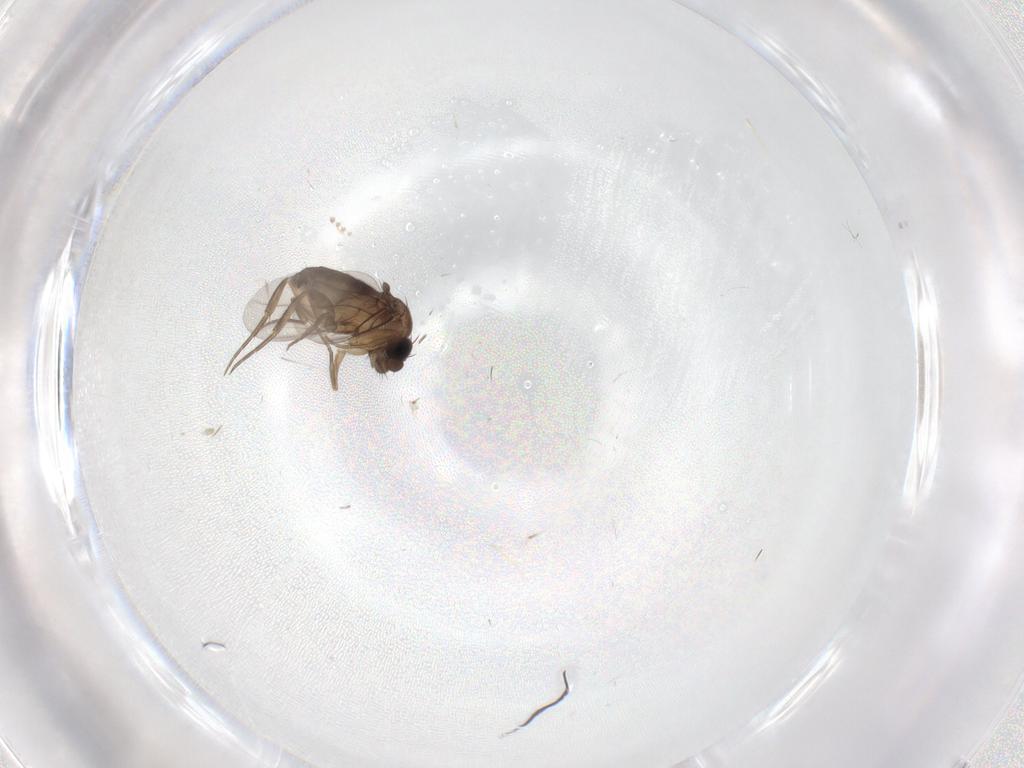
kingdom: Animalia
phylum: Arthropoda
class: Insecta
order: Diptera
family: Phoridae
